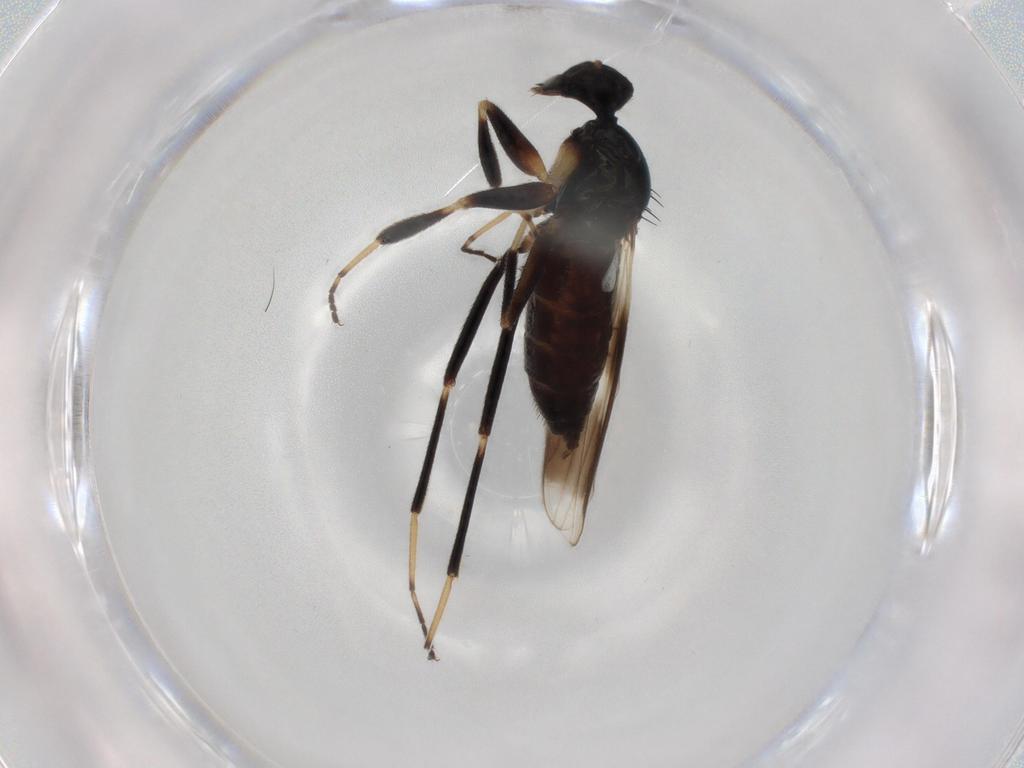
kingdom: Animalia
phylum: Arthropoda
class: Insecta
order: Diptera
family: Hybotidae
